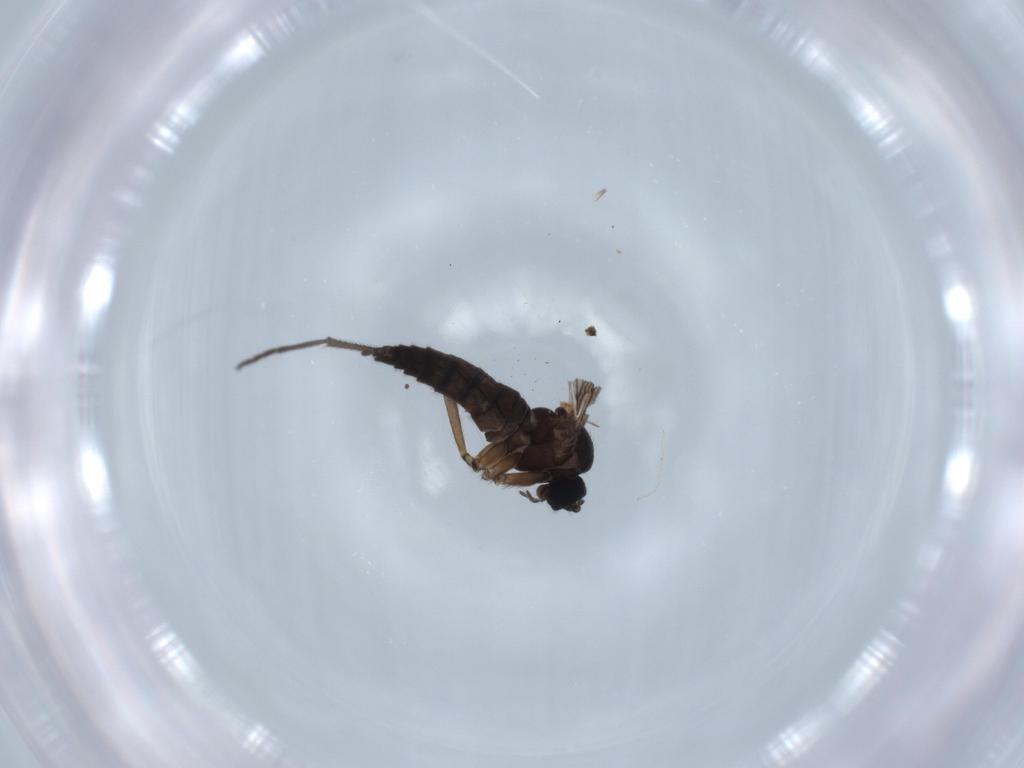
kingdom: Animalia
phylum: Arthropoda
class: Insecta
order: Diptera
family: Sciaridae
